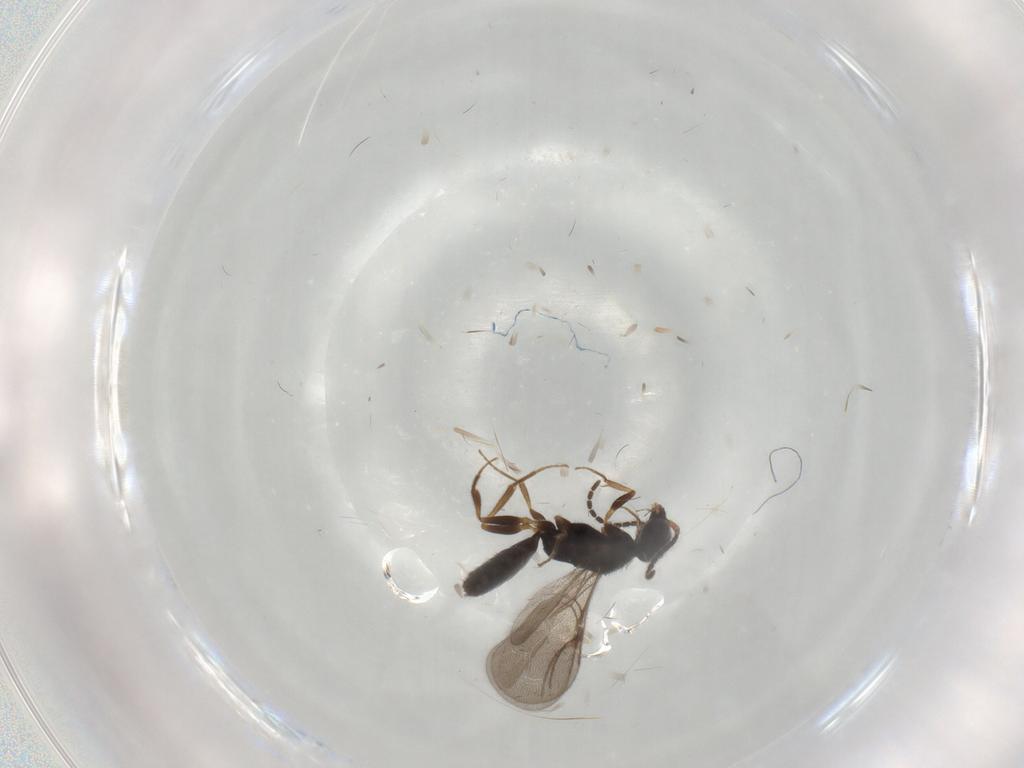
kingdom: Animalia
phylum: Arthropoda
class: Insecta
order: Hymenoptera
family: Bethylidae
